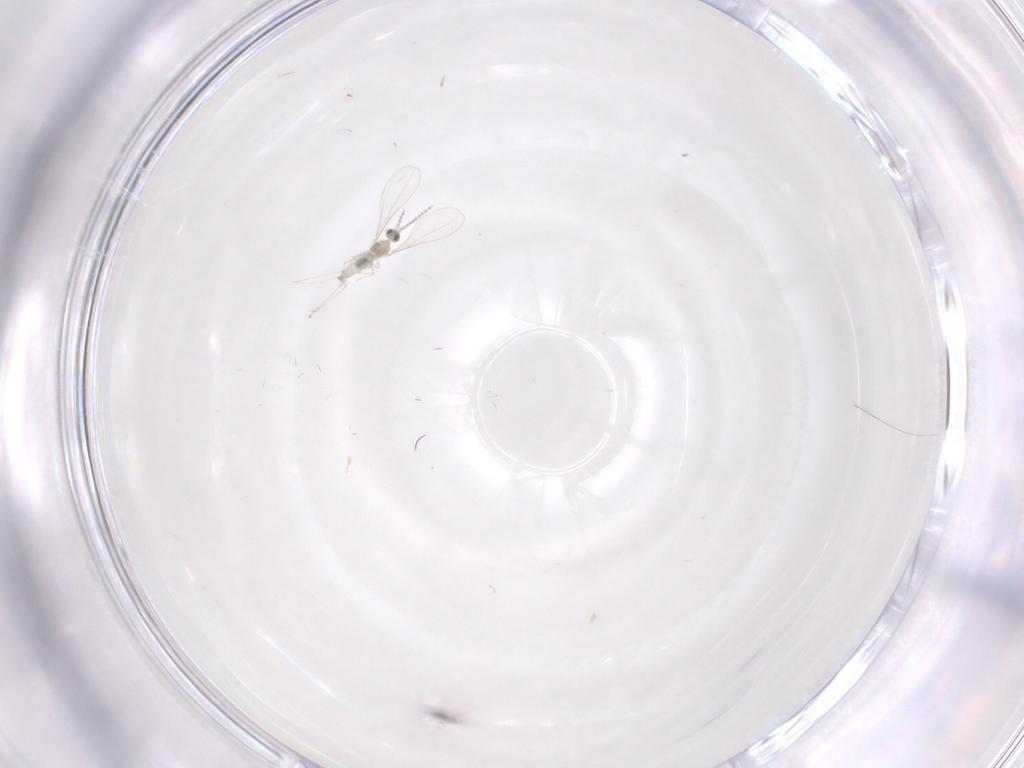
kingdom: Animalia
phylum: Arthropoda
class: Insecta
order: Diptera
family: Cecidomyiidae
